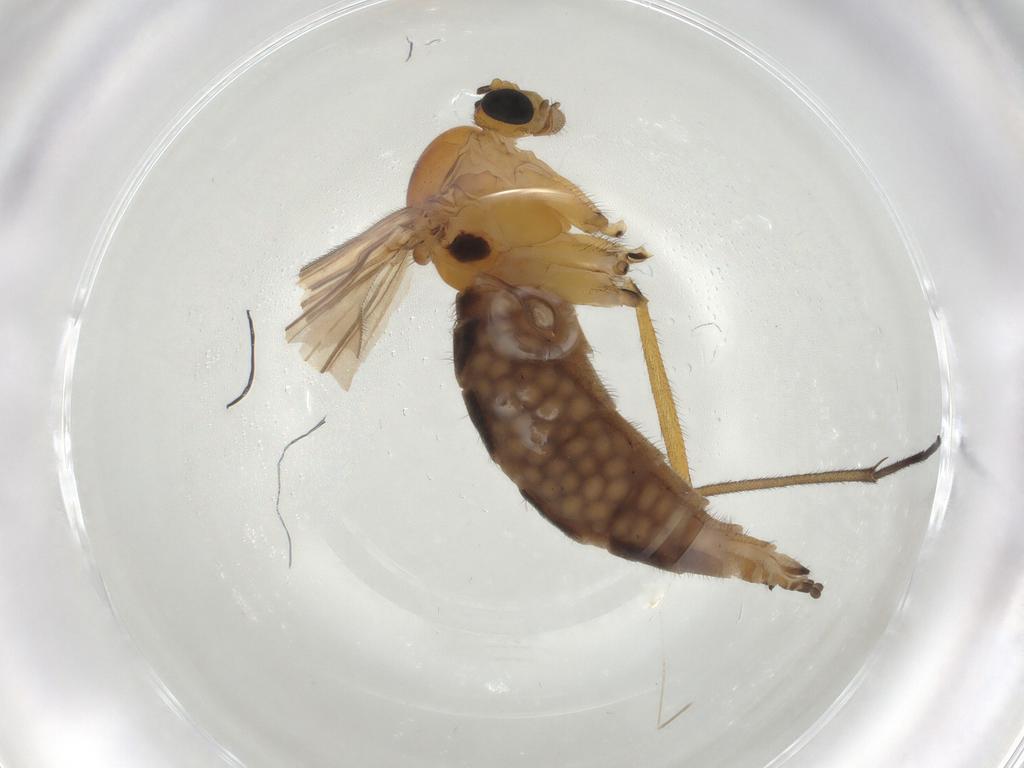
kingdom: Animalia
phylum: Arthropoda
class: Insecta
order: Diptera
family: Sciaridae
